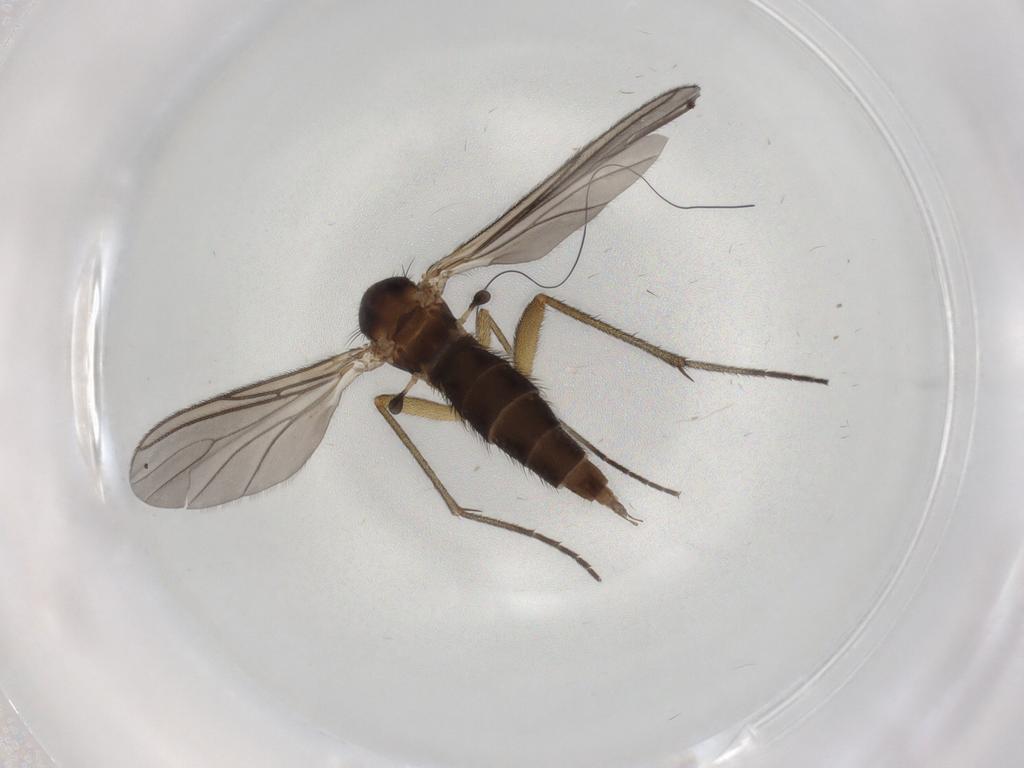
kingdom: Animalia
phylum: Arthropoda
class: Insecta
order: Diptera
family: Sciaridae
